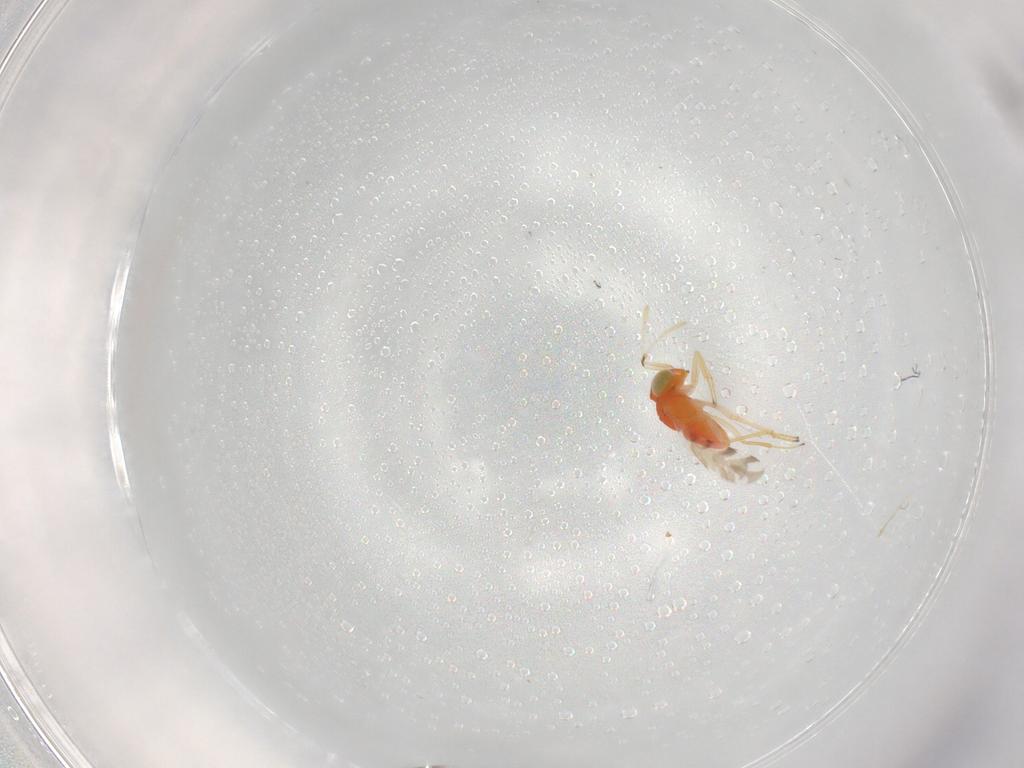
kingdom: Animalia
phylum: Arthropoda
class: Insecta
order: Hymenoptera
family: Encyrtidae
